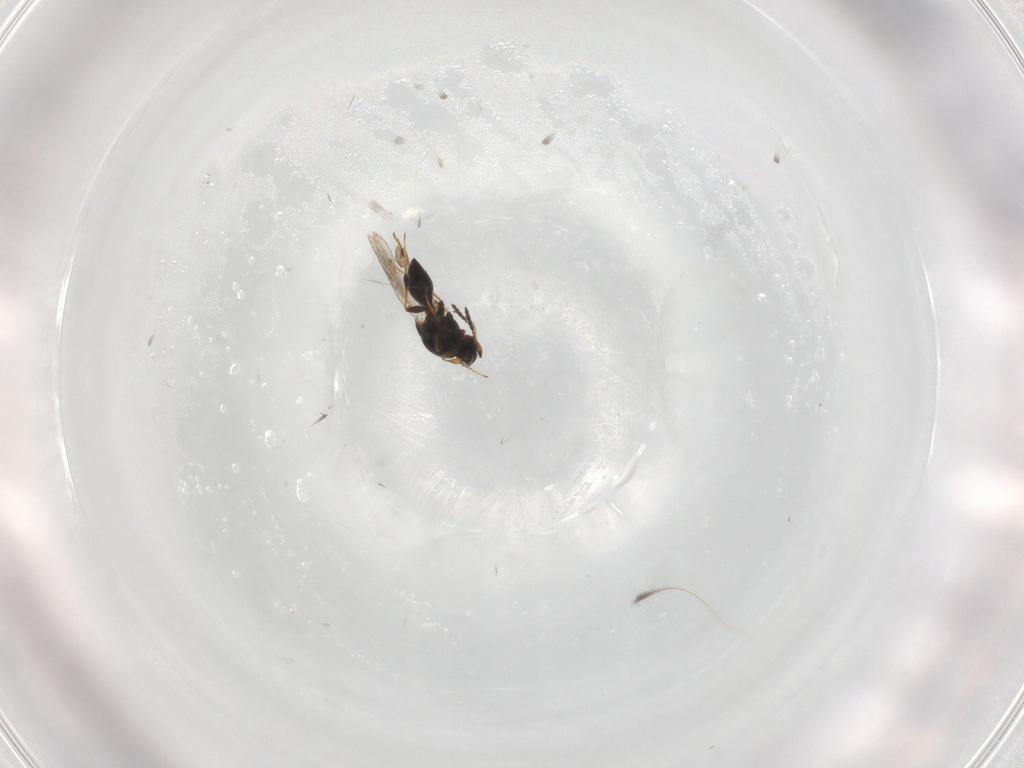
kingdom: Animalia
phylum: Arthropoda
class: Insecta
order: Hymenoptera
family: Platygastridae
